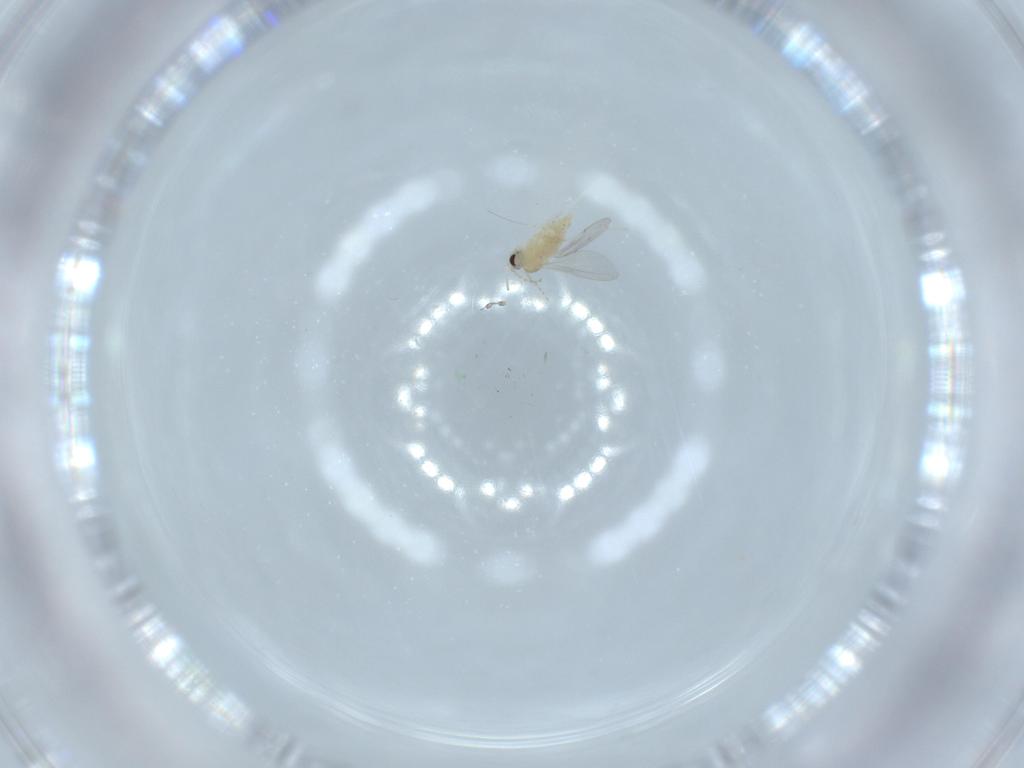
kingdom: Animalia
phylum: Arthropoda
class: Insecta
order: Diptera
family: Cecidomyiidae
